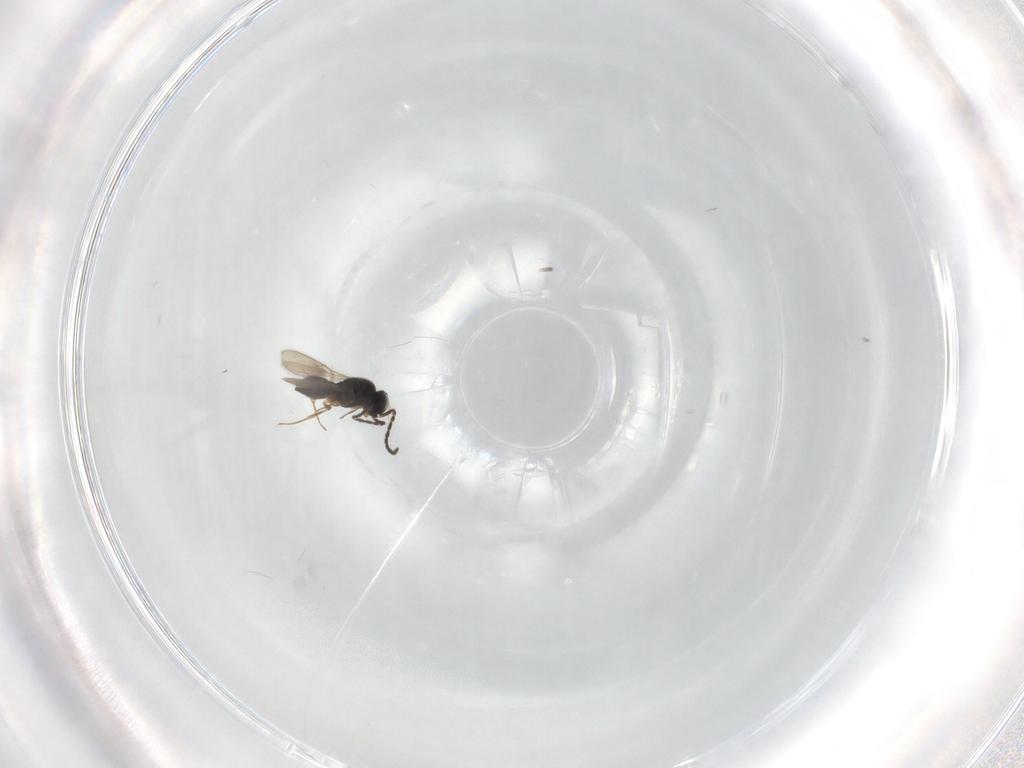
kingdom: Animalia
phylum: Arthropoda
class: Insecta
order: Hymenoptera
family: Scelionidae
